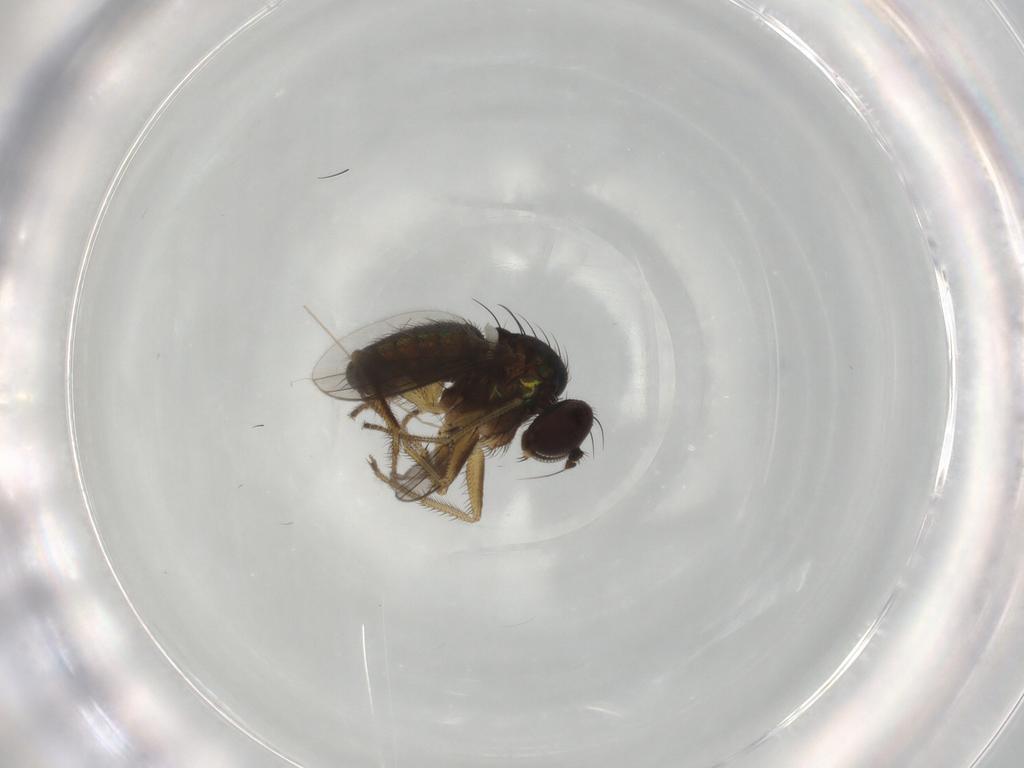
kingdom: Animalia
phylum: Arthropoda
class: Insecta
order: Diptera
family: Dolichopodidae
